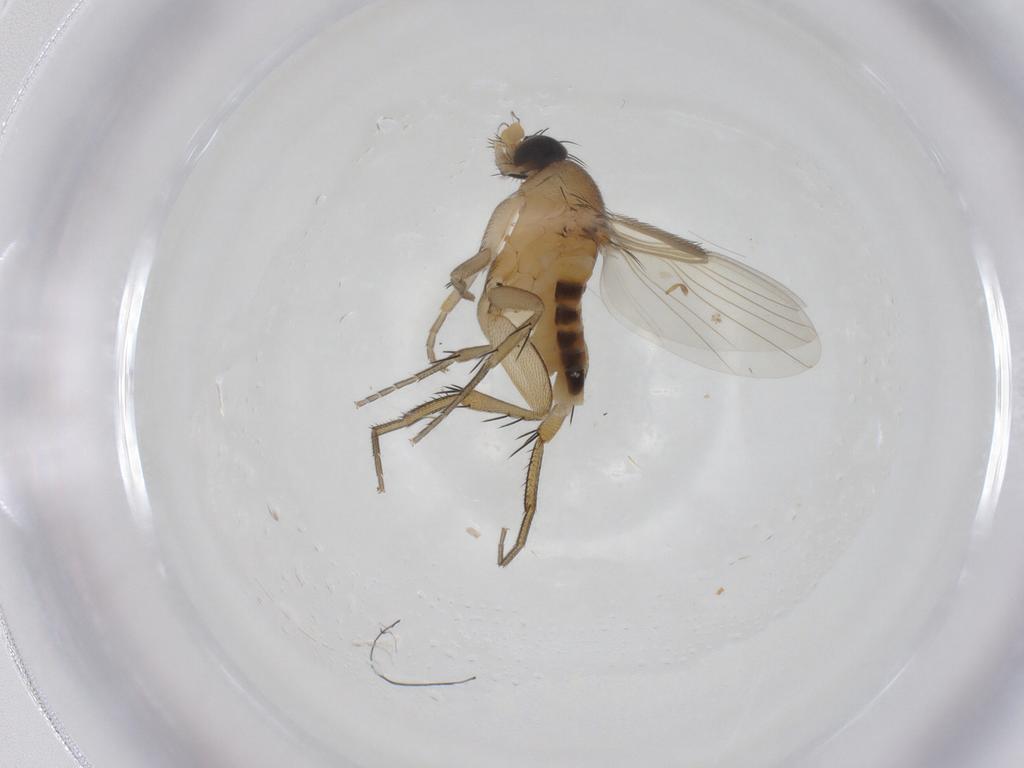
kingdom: Animalia
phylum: Arthropoda
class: Insecta
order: Diptera
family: Phoridae
